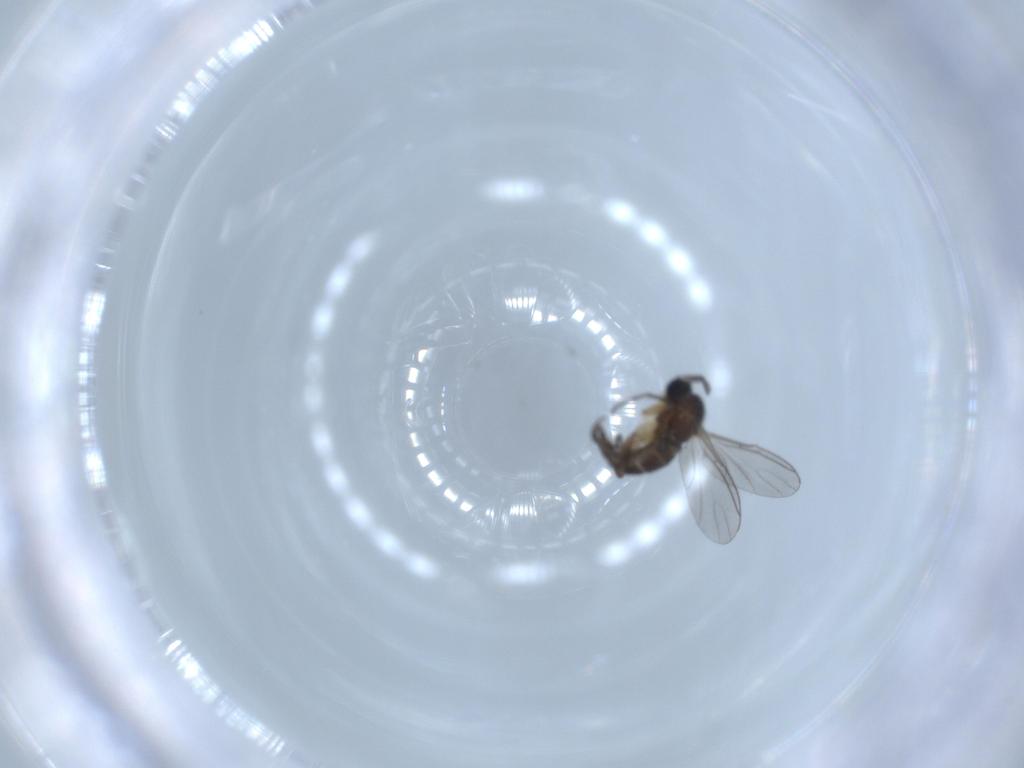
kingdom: Animalia
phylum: Arthropoda
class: Insecta
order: Diptera
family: Sciaridae
